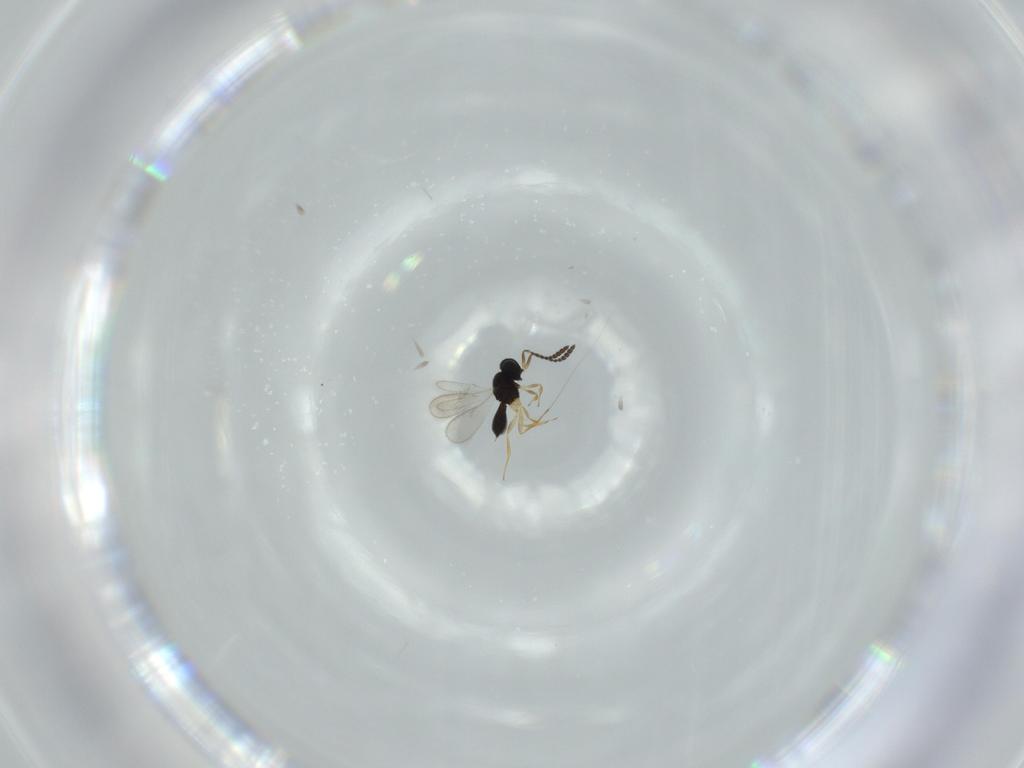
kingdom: Animalia
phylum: Arthropoda
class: Insecta
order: Hymenoptera
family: Scelionidae
